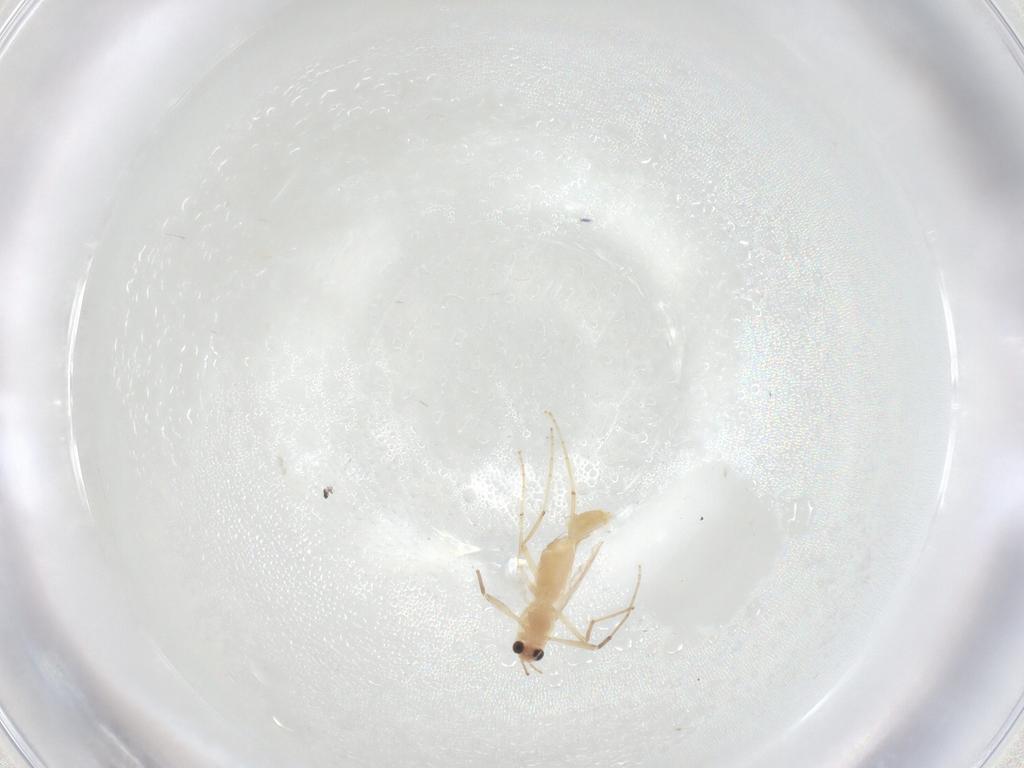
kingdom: Animalia
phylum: Arthropoda
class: Insecta
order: Diptera
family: Chironomidae
